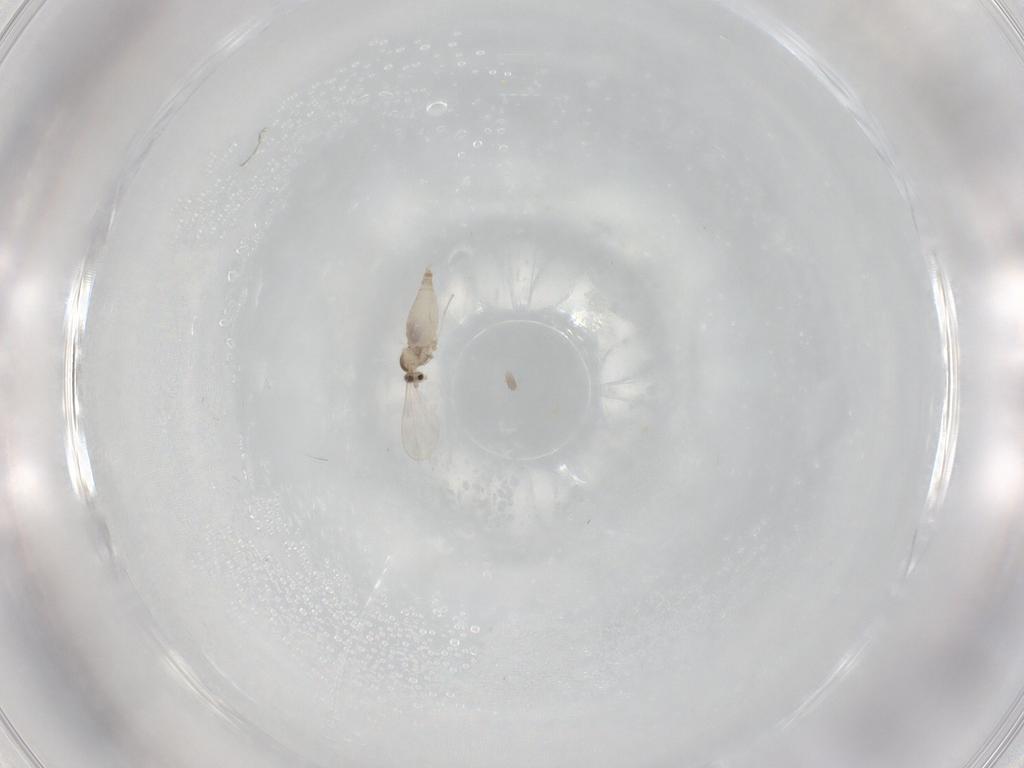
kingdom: Animalia
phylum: Arthropoda
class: Insecta
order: Diptera
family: Cecidomyiidae
